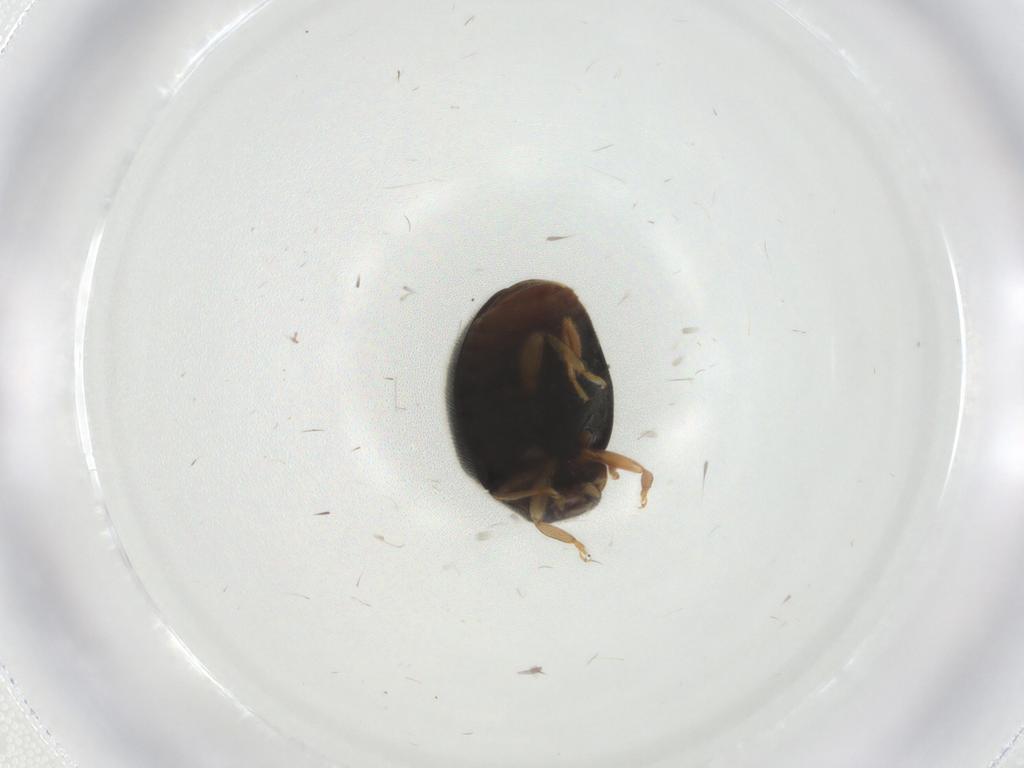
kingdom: Animalia
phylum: Arthropoda
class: Insecta
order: Coleoptera
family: Coccinellidae
